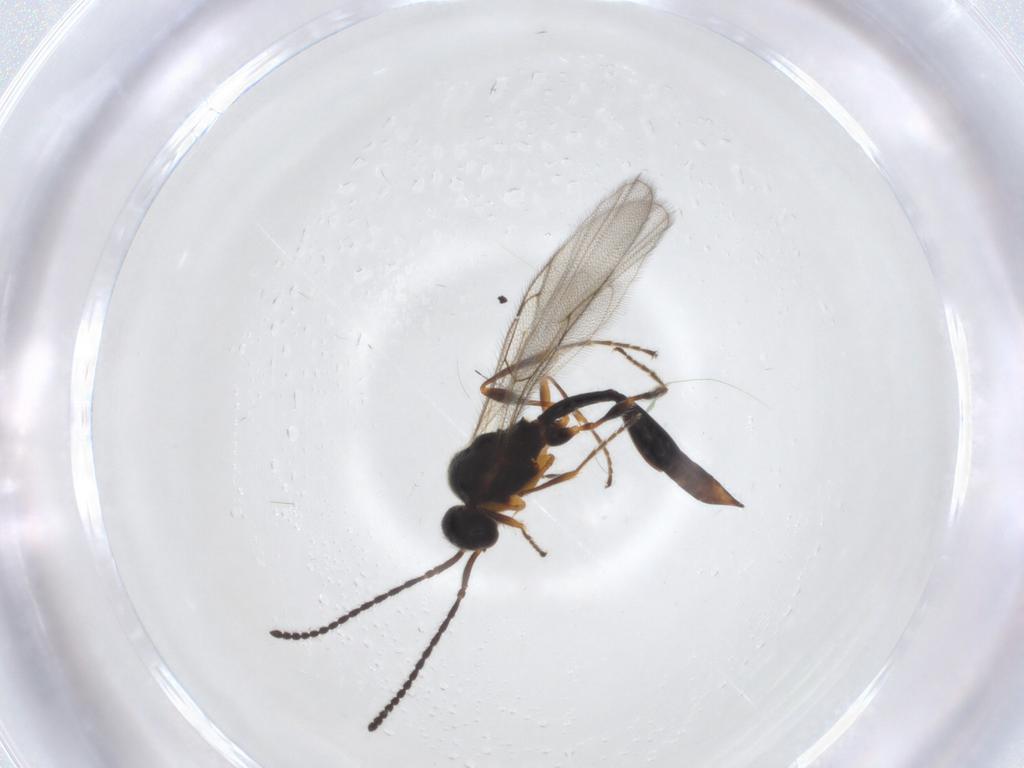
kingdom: Animalia
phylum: Arthropoda
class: Insecta
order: Hymenoptera
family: Diapriidae
